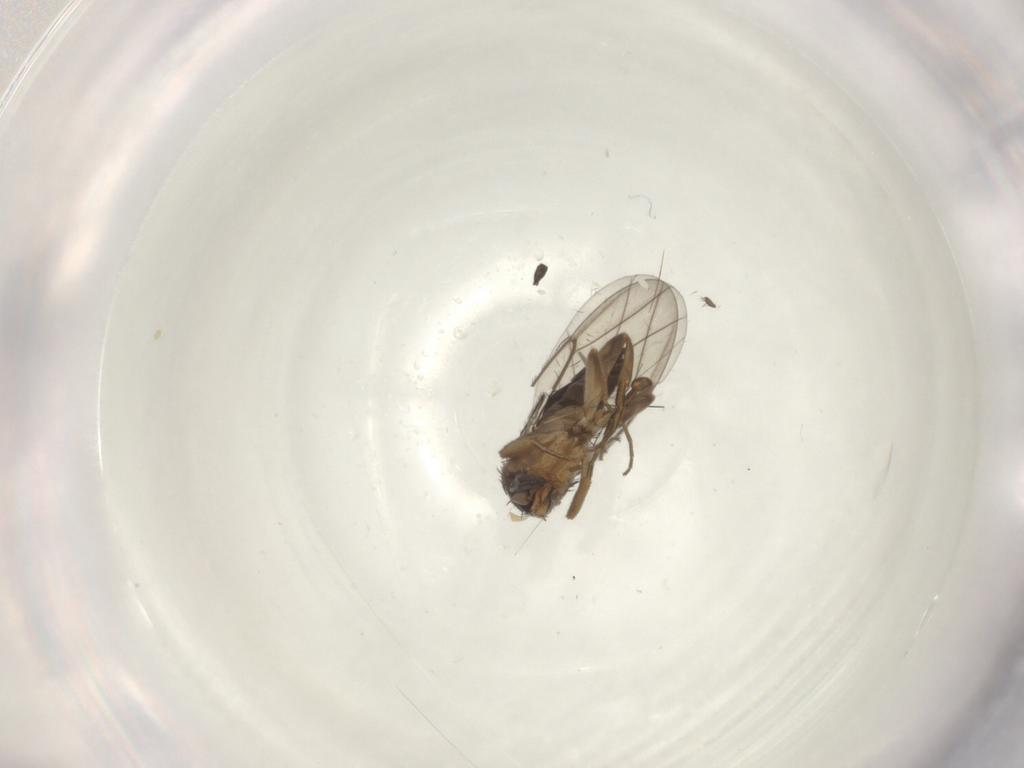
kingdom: Animalia
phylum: Arthropoda
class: Insecta
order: Diptera
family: Phoridae
